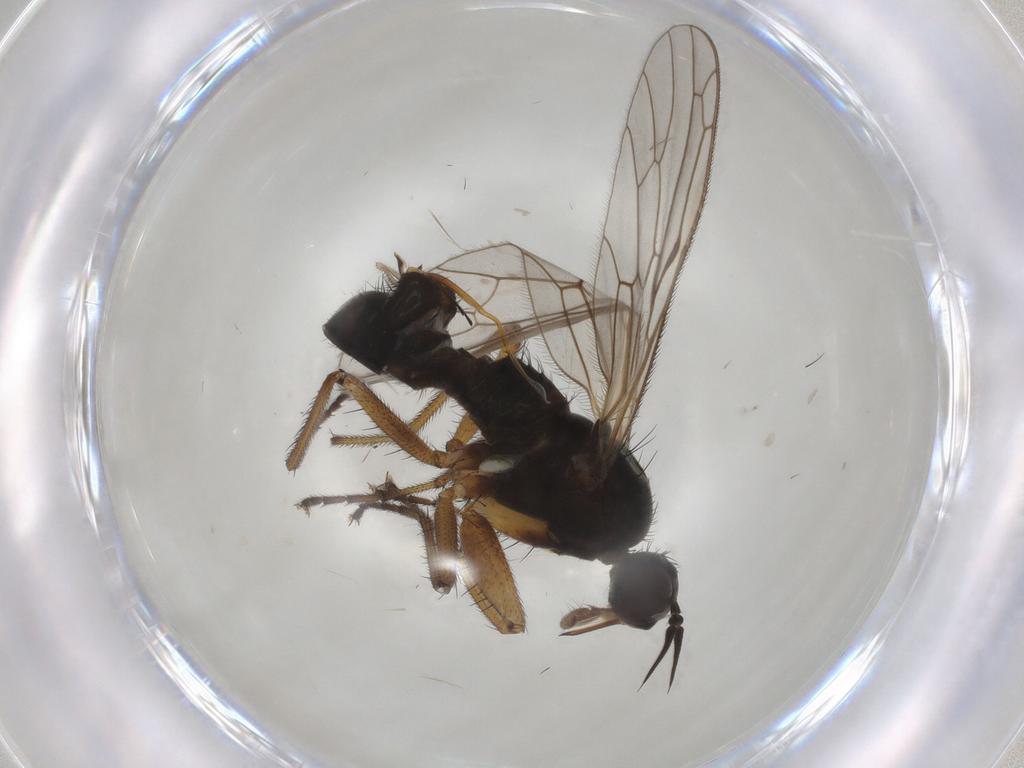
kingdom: Animalia
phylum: Arthropoda
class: Insecta
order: Diptera
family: Empididae
